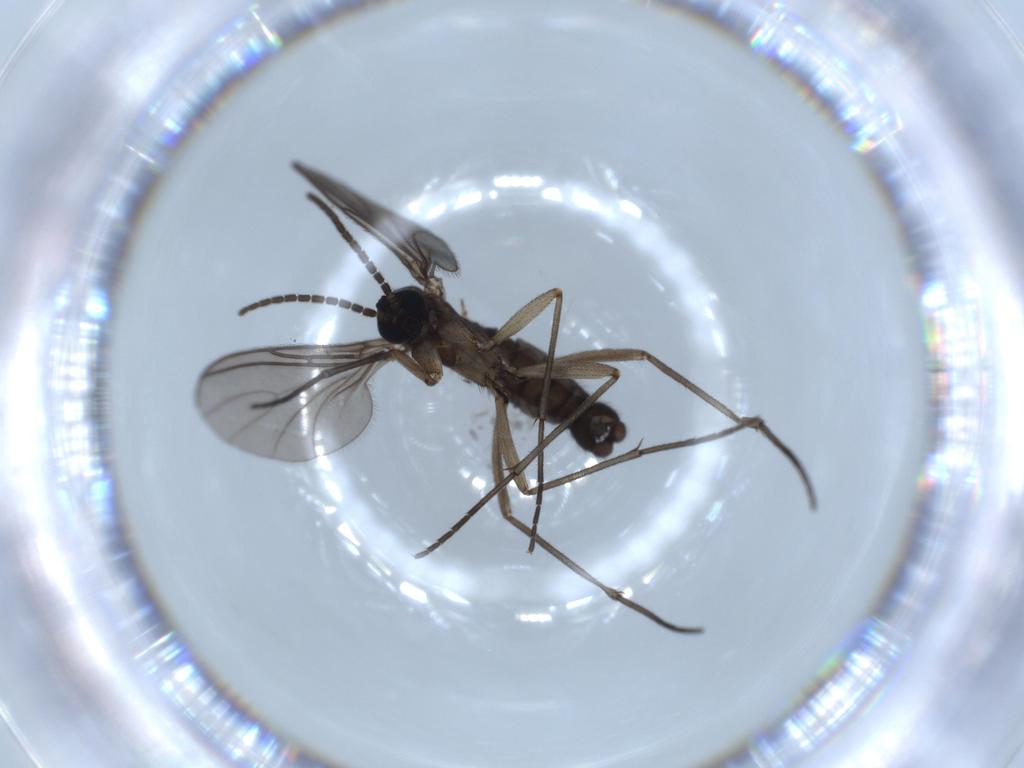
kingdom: Animalia
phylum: Arthropoda
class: Insecta
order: Diptera
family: Sciaridae
